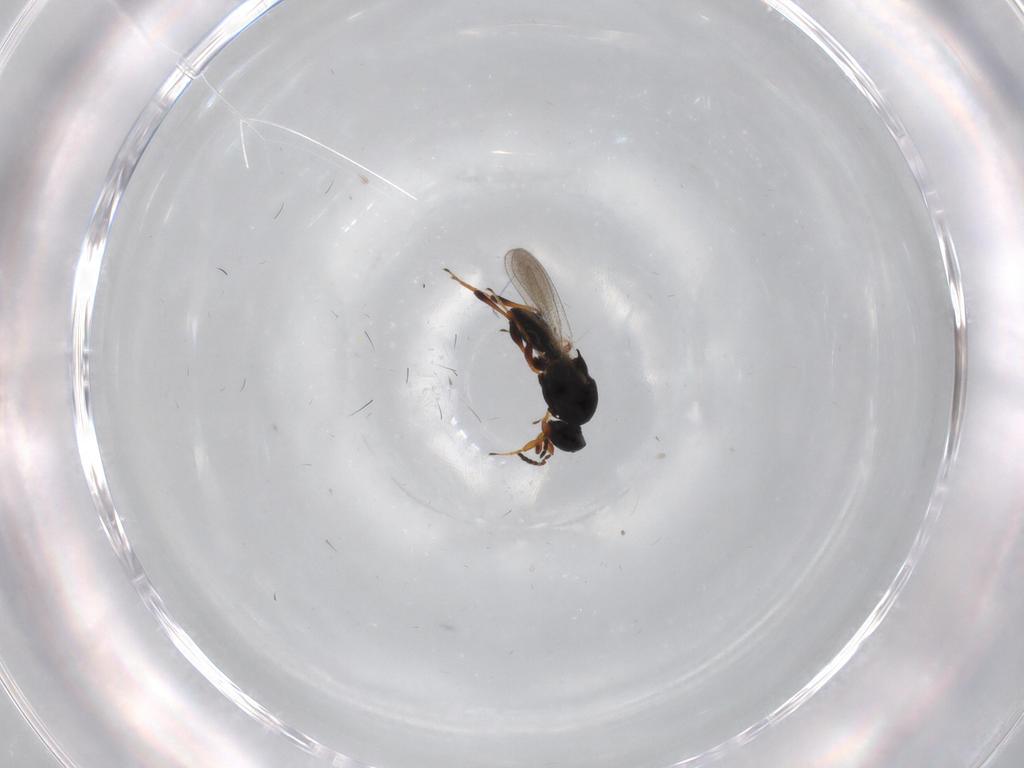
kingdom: Animalia
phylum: Arthropoda
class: Insecta
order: Hymenoptera
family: Platygastridae
